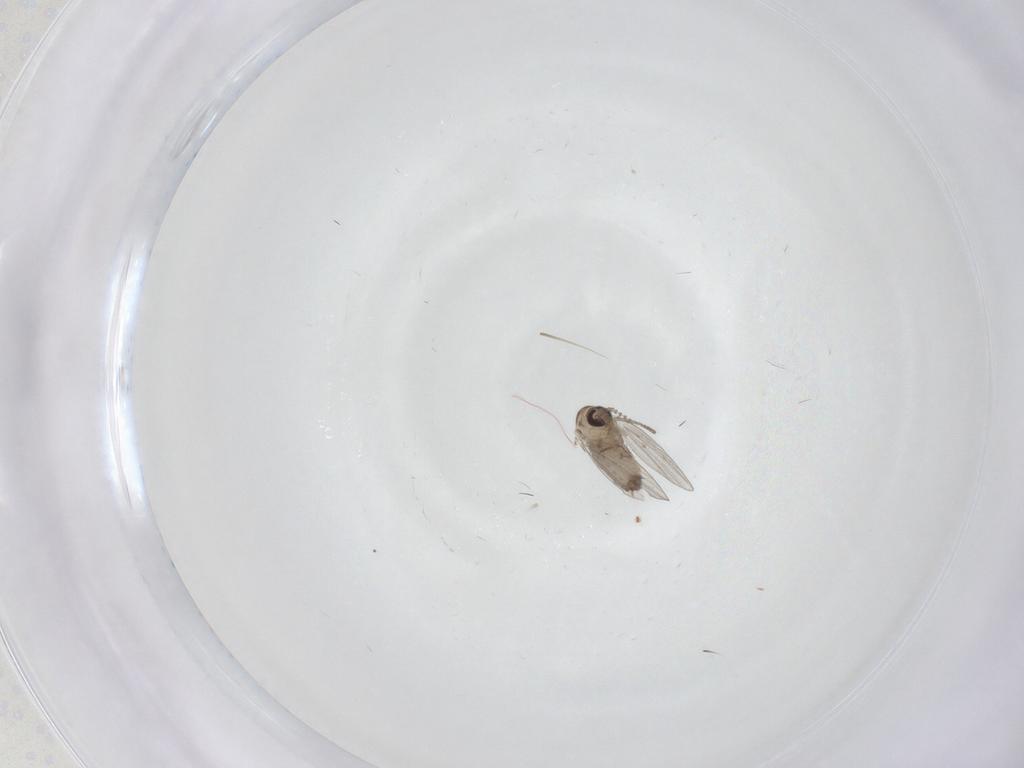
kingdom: Animalia
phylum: Arthropoda
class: Insecta
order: Diptera
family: Psychodidae
